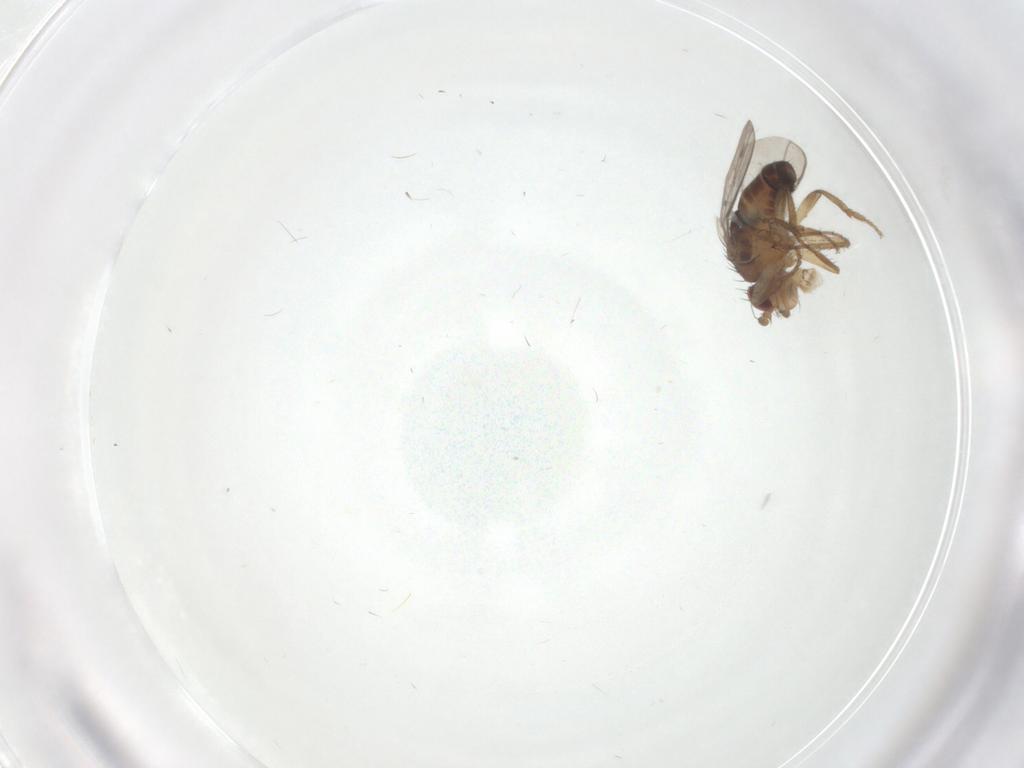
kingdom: Animalia
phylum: Arthropoda
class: Insecta
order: Diptera
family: Sphaeroceridae
